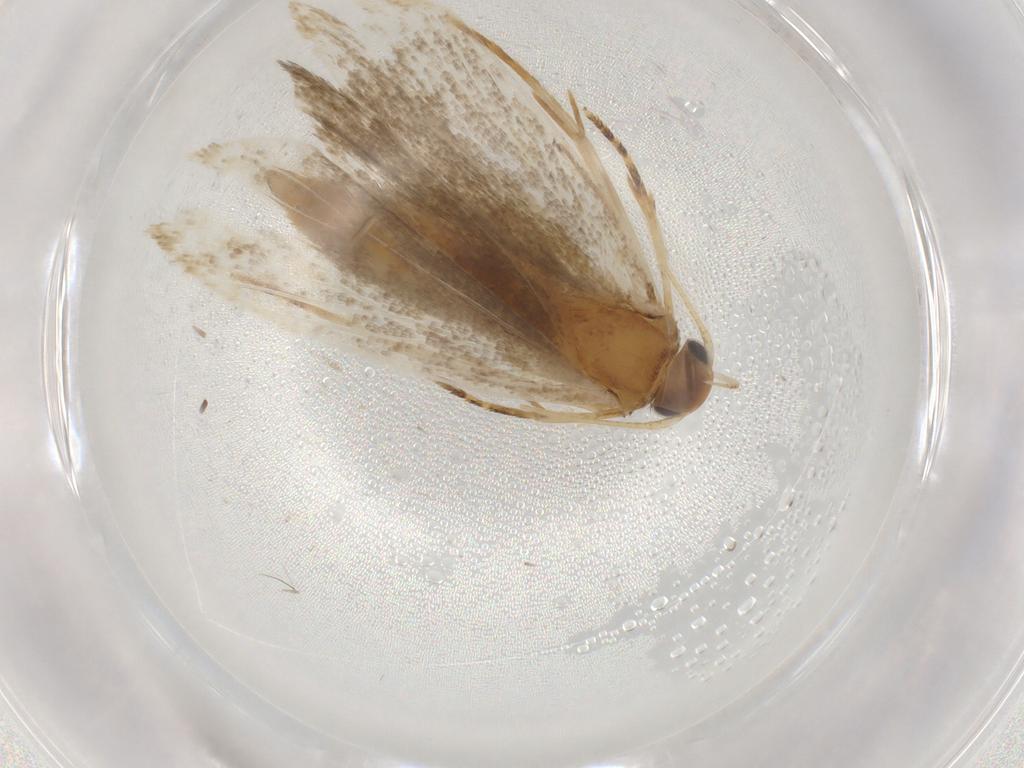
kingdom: Animalia
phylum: Arthropoda
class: Insecta
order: Lepidoptera
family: Gelechiidae
